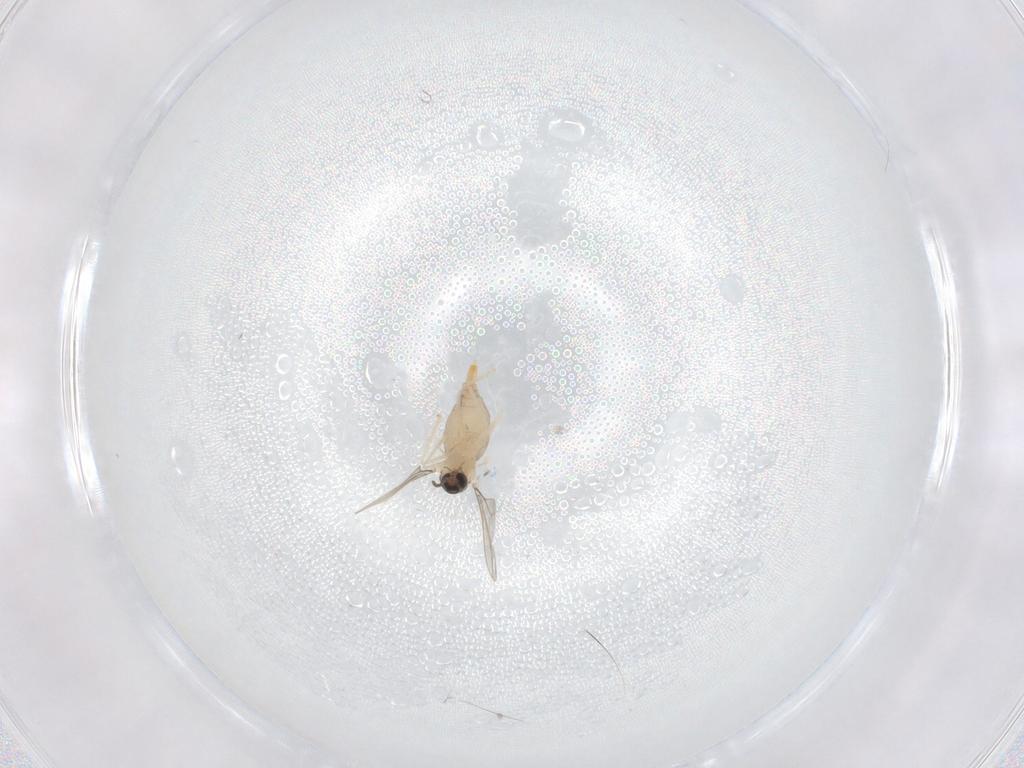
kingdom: Animalia
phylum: Arthropoda
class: Insecta
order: Diptera
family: Cecidomyiidae
